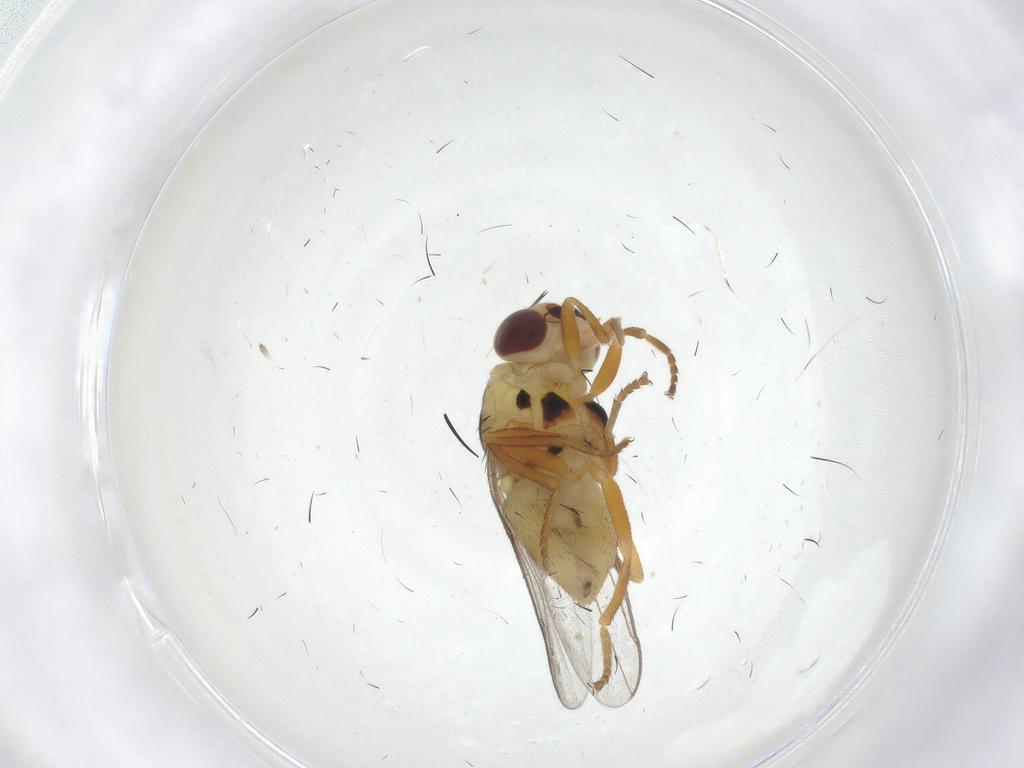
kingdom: Animalia
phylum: Arthropoda
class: Insecta
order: Diptera
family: Chloropidae
